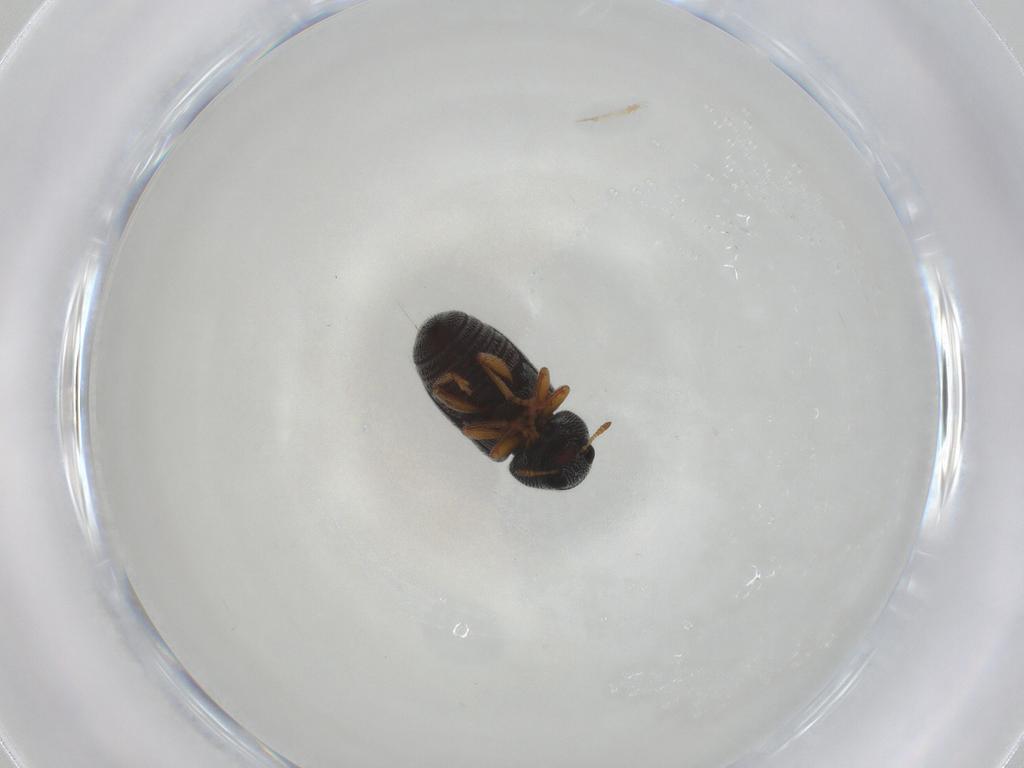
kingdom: Animalia
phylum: Arthropoda
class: Insecta
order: Coleoptera
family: Anthribidae
